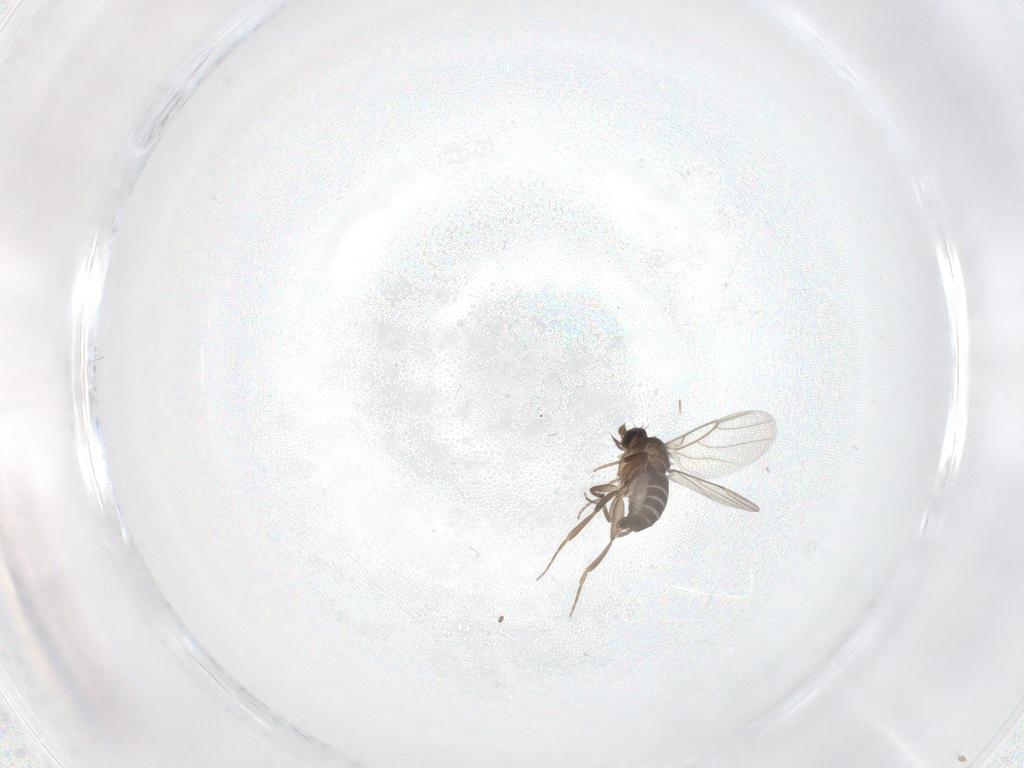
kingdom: Animalia
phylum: Arthropoda
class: Insecta
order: Diptera
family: Phoridae
